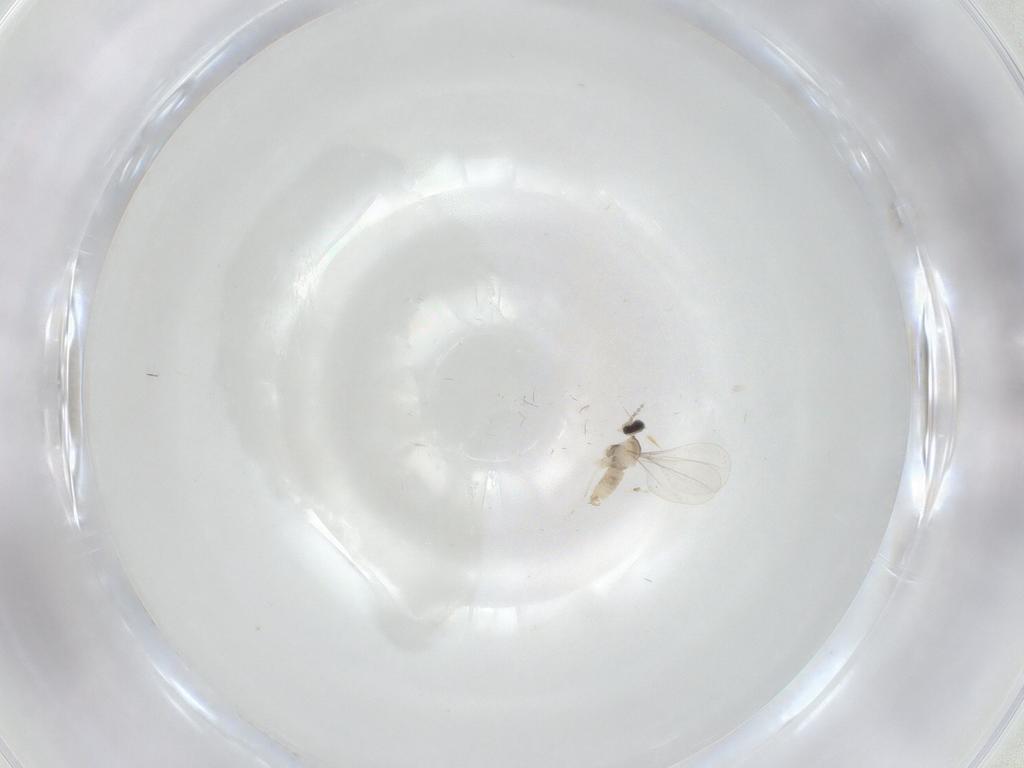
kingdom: Animalia
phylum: Arthropoda
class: Insecta
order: Diptera
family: Cecidomyiidae
